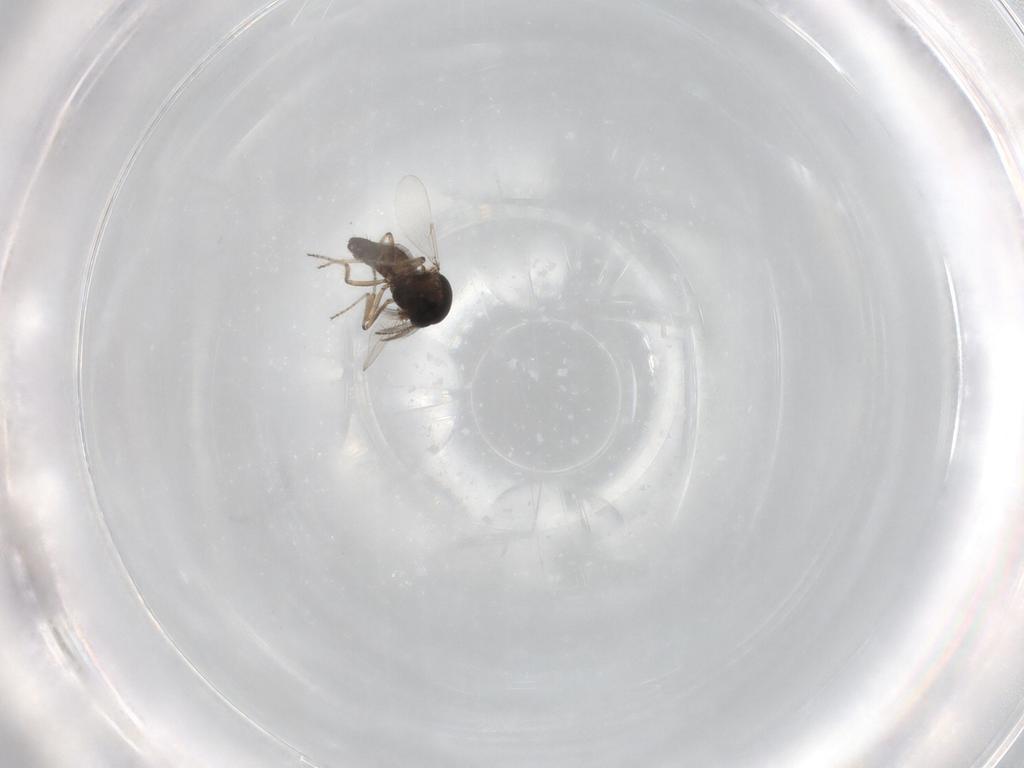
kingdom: Animalia
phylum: Arthropoda
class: Insecta
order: Diptera
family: Ceratopogonidae
